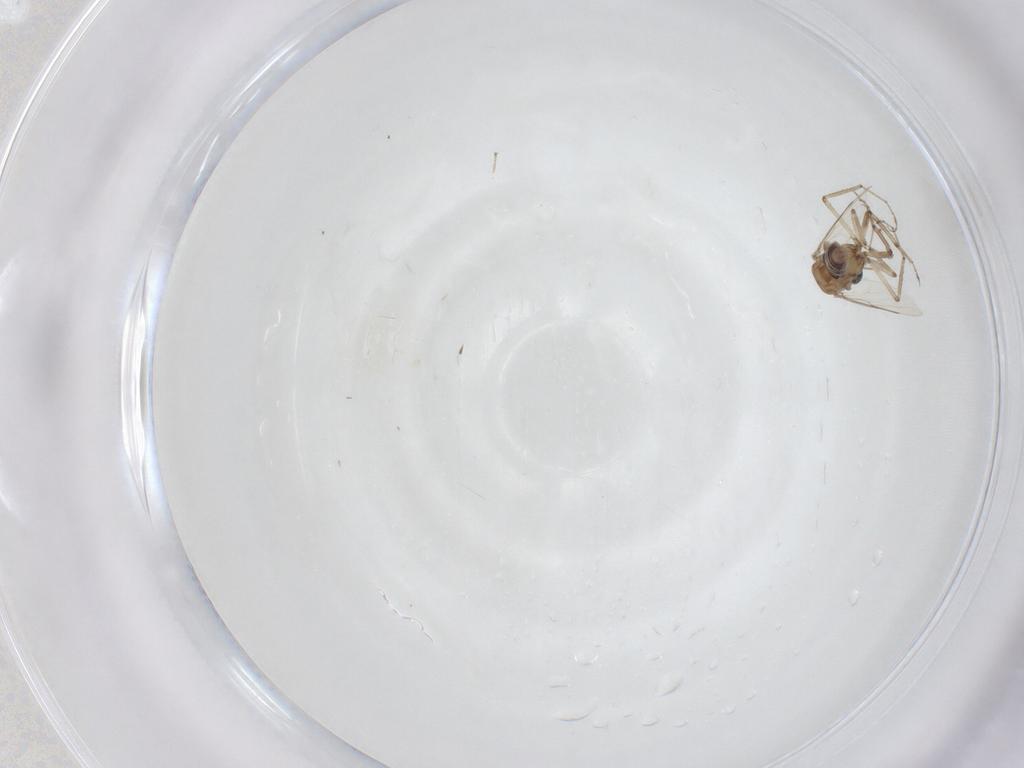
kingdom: Animalia
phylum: Arthropoda
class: Insecta
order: Diptera
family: Ceratopogonidae
